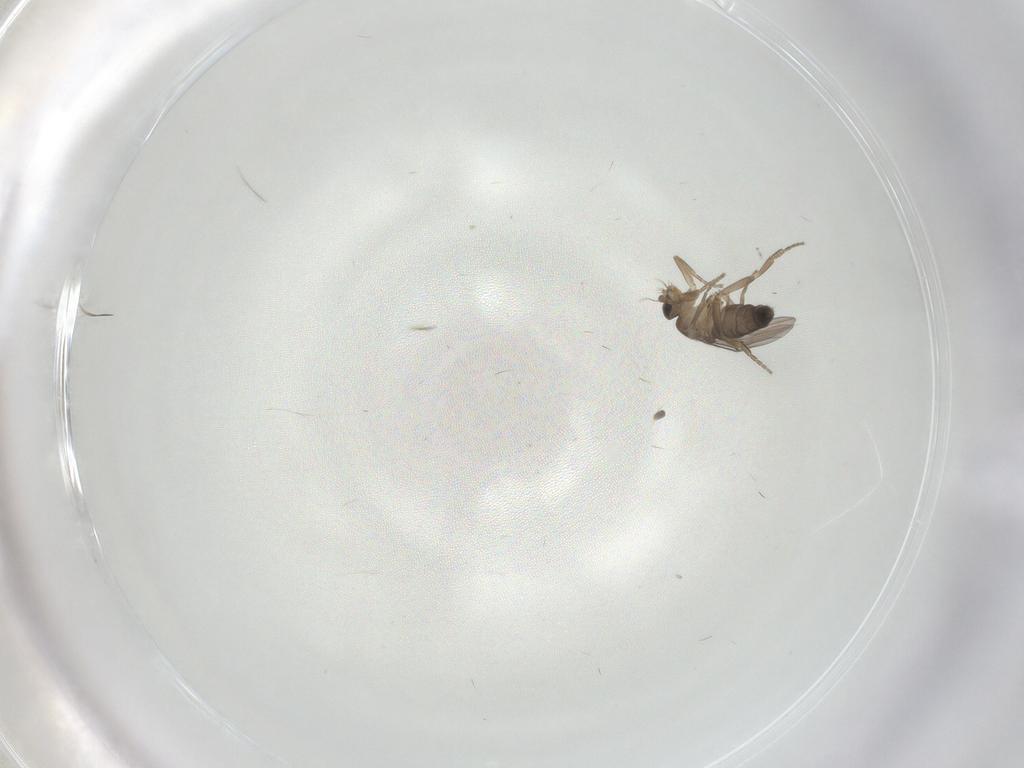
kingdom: Animalia
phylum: Arthropoda
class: Insecta
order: Diptera
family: Phoridae
